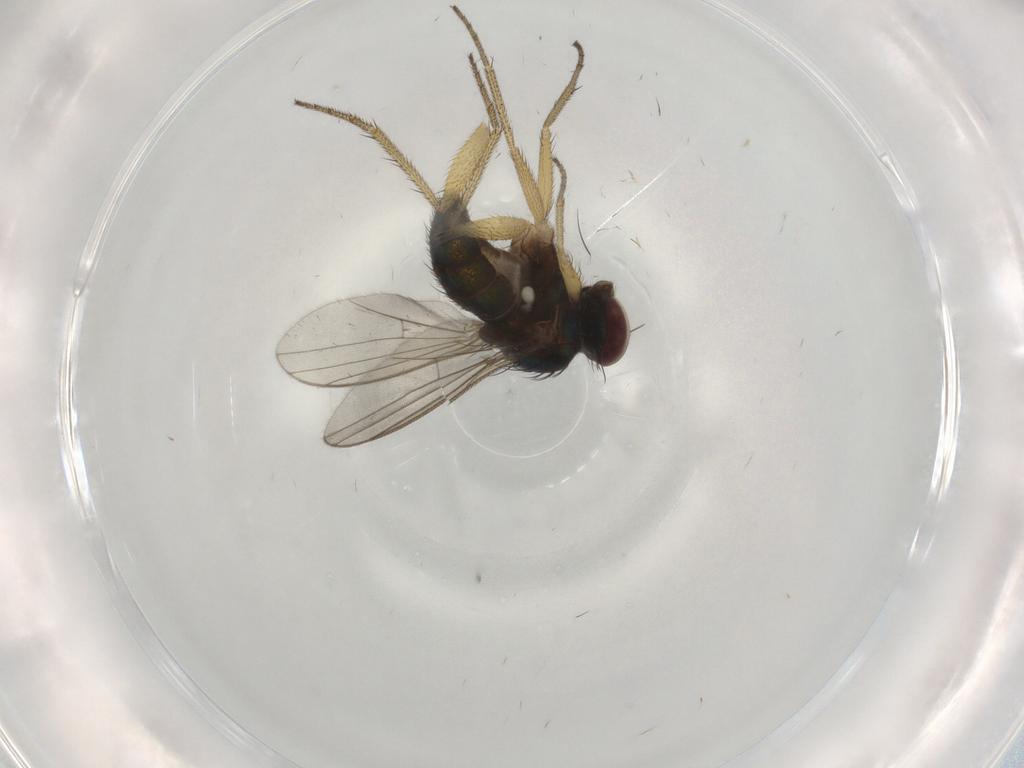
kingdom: Animalia
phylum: Arthropoda
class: Insecta
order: Diptera
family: Dolichopodidae
